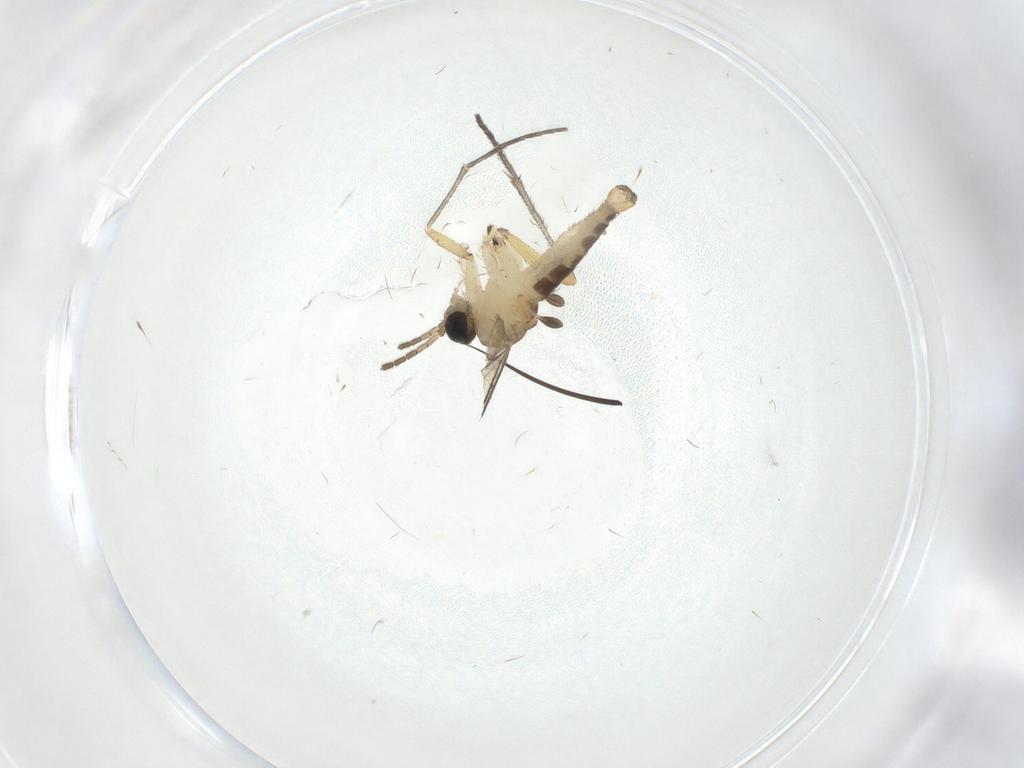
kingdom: Animalia
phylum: Arthropoda
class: Insecta
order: Diptera
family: Sciaridae
